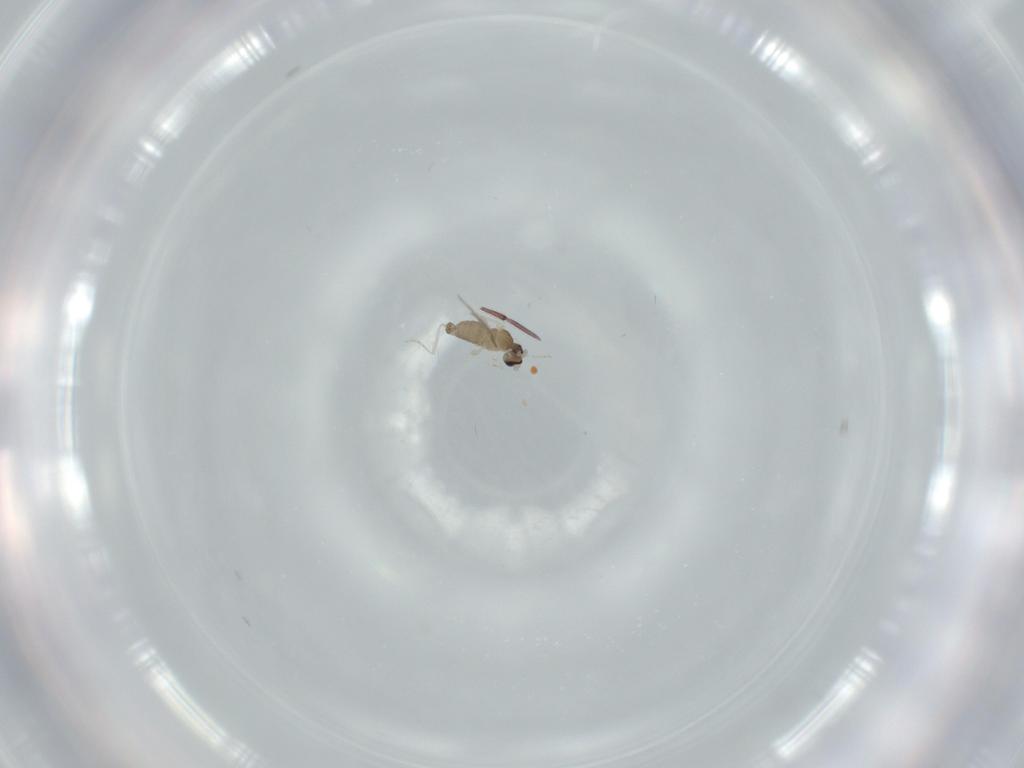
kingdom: Animalia
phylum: Arthropoda
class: Insecta
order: Diptera
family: Cecidomyiidae
